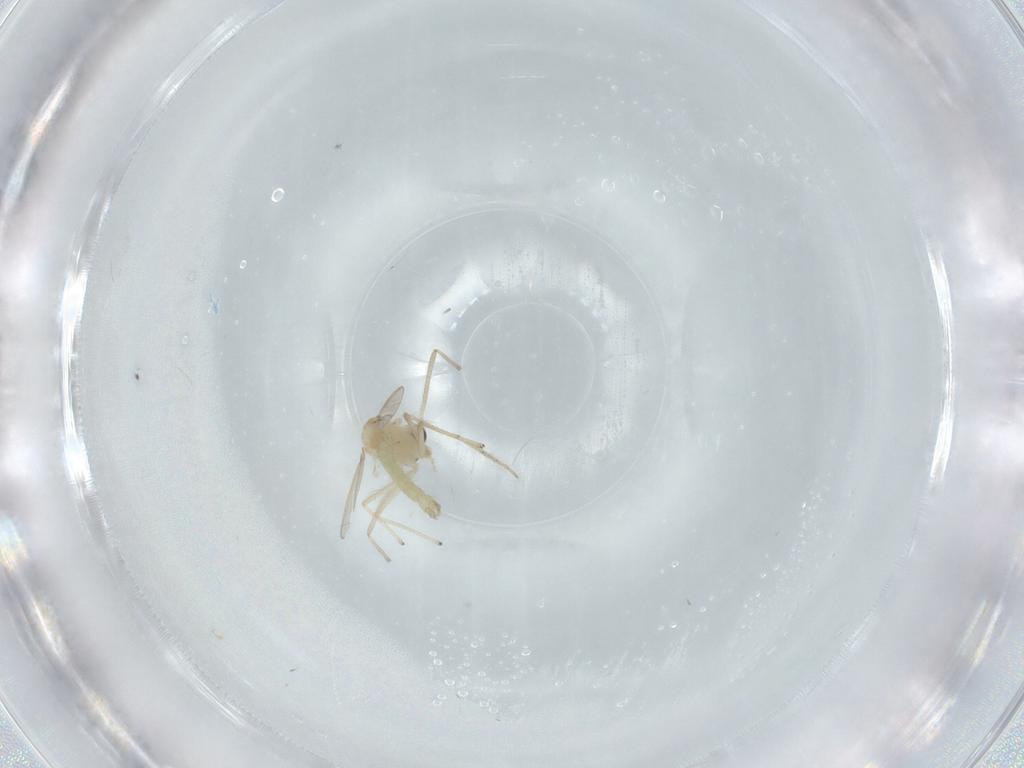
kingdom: Animalia
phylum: Arthropoda
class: Insecta
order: Diptera
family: Chironomidae
